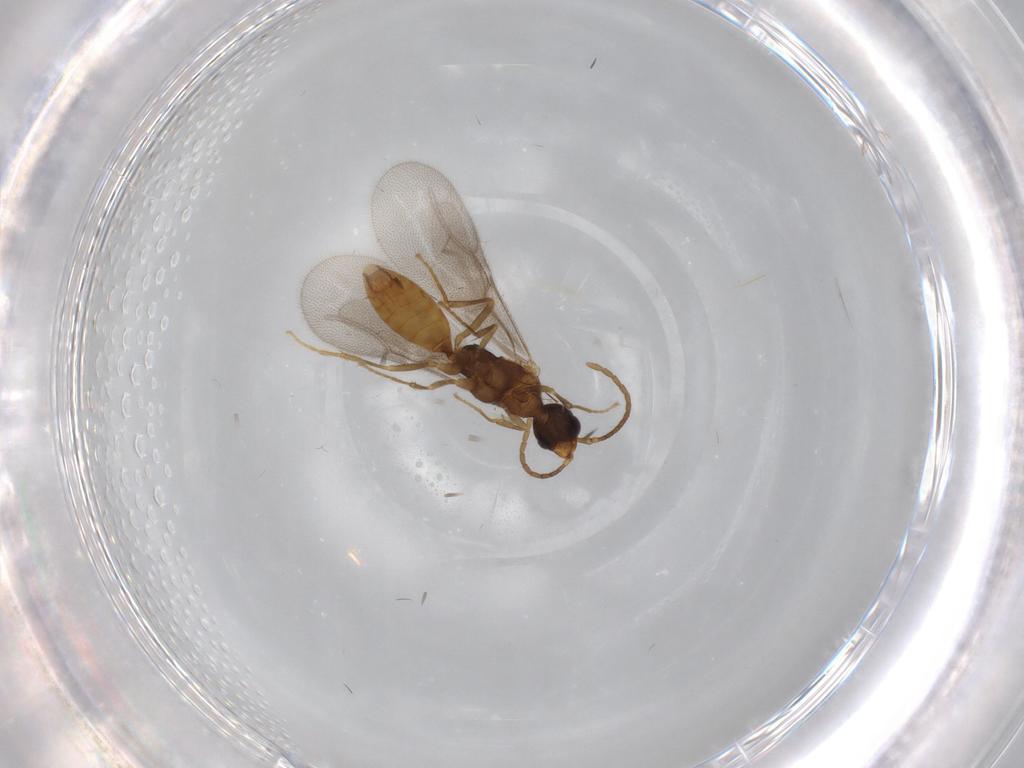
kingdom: Animalia
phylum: Arthropoda
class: Insecta
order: Hymenoptera
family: Bethylidae
